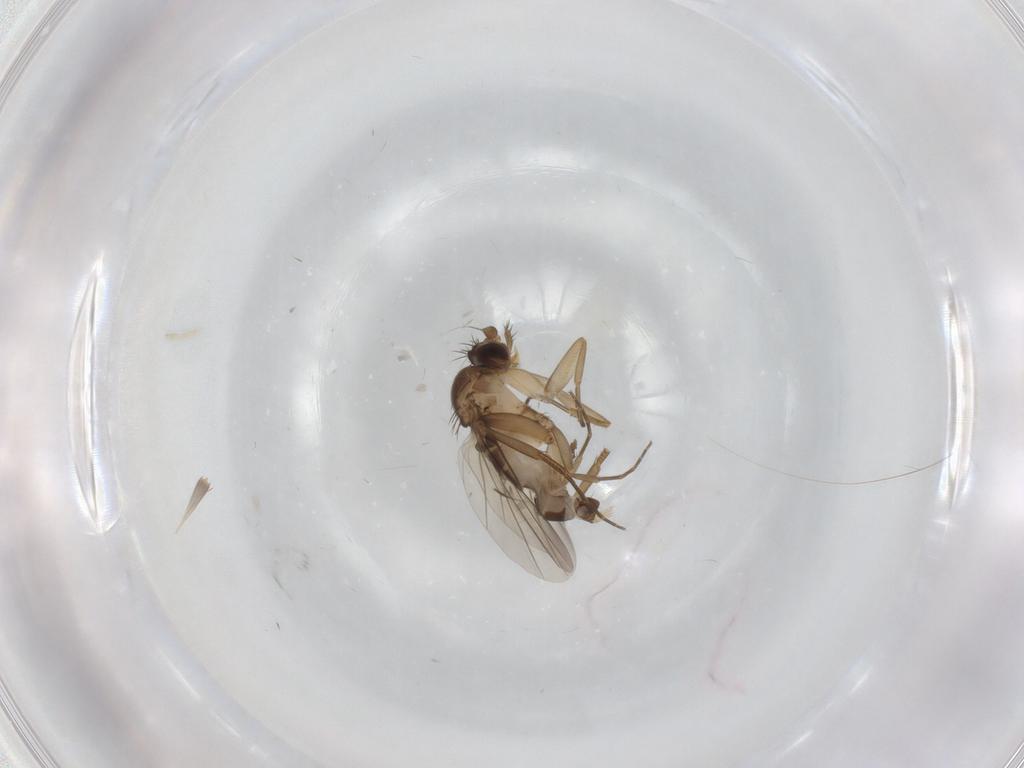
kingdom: Animalia
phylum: Arthropoda
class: Insecta
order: Diptera
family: Phoridae
